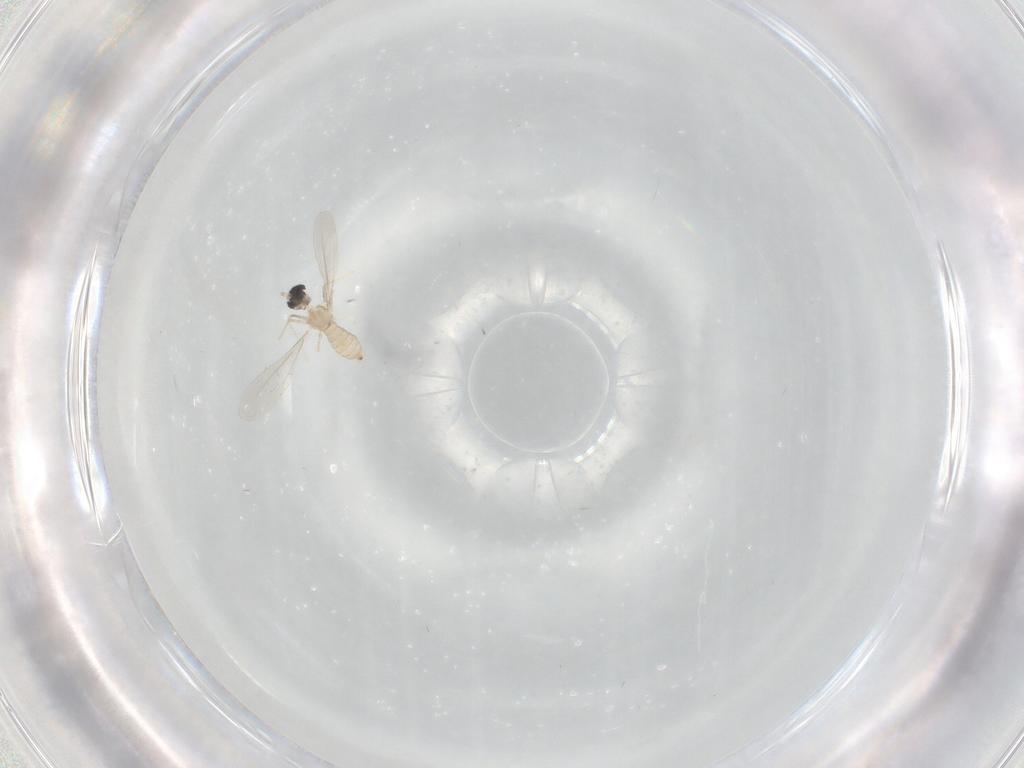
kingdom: Animalia
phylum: Arthropoda
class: Insecta
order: Diptera
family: Cecidomyiidae
